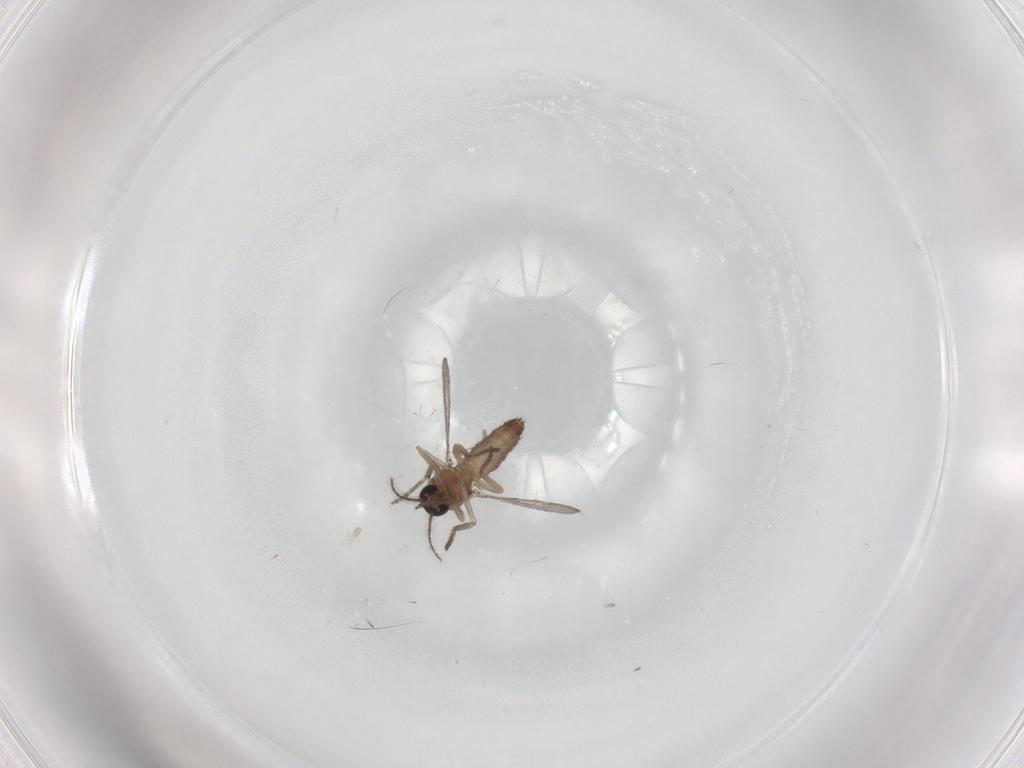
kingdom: Animalia
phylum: Arthropoda
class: Insecta
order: Diptera
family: Ceratopogonidae
